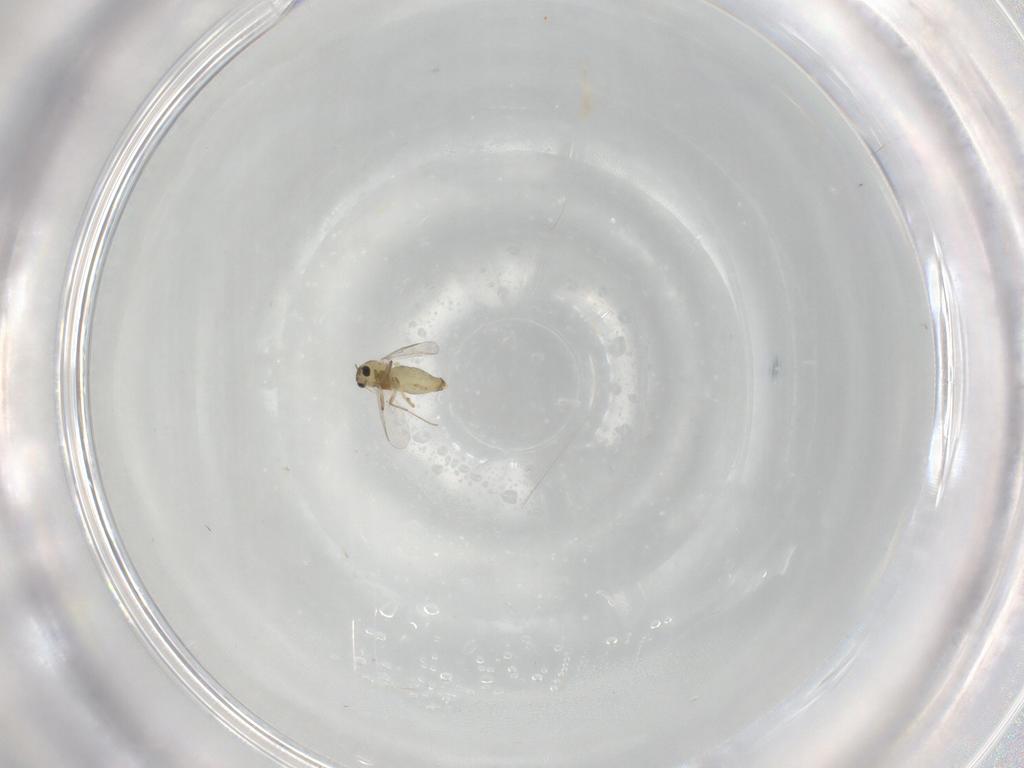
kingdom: Animalia
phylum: Arthropoda
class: Insecta
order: Diptera
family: Chironomidae
